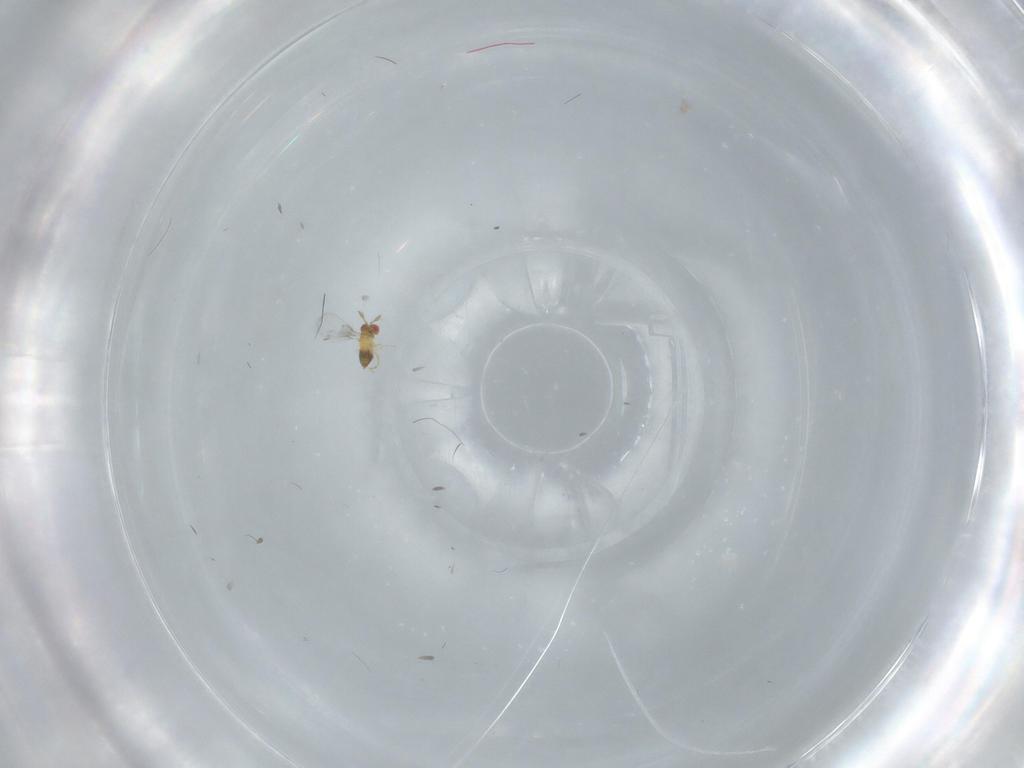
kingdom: Animalia
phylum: Arthropoda
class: Insecta
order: Hymenoptera
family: Trichogrammatidae
